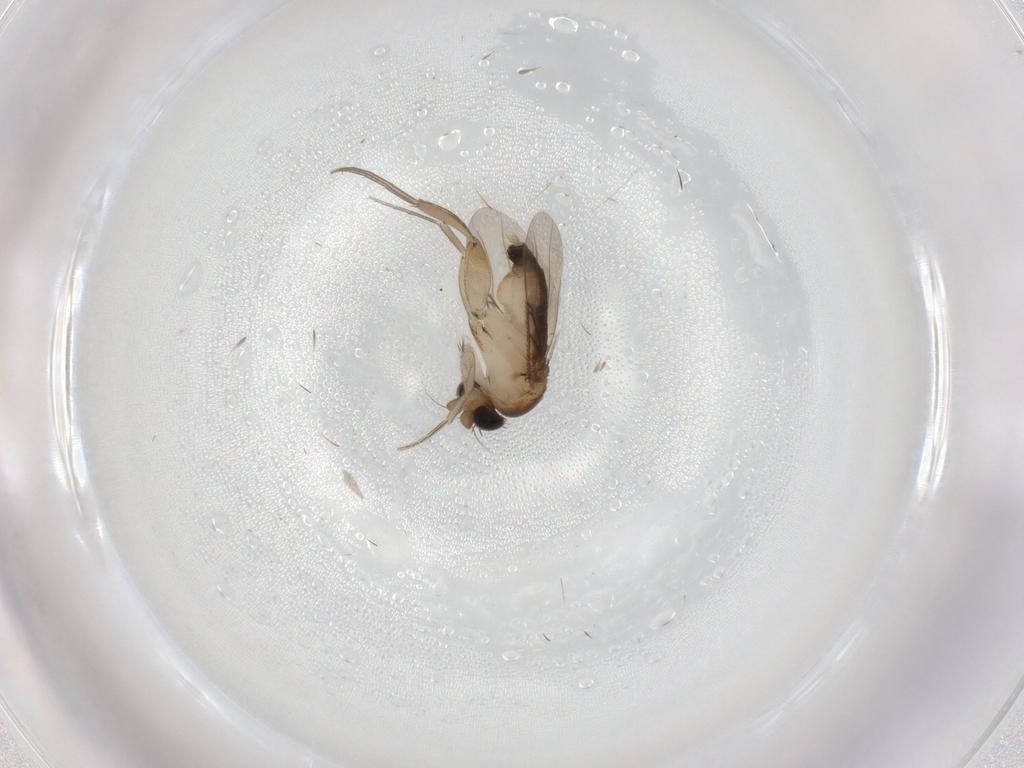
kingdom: Animalia
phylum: Arthropoda
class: Insecta
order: Diptera
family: Phoridae
